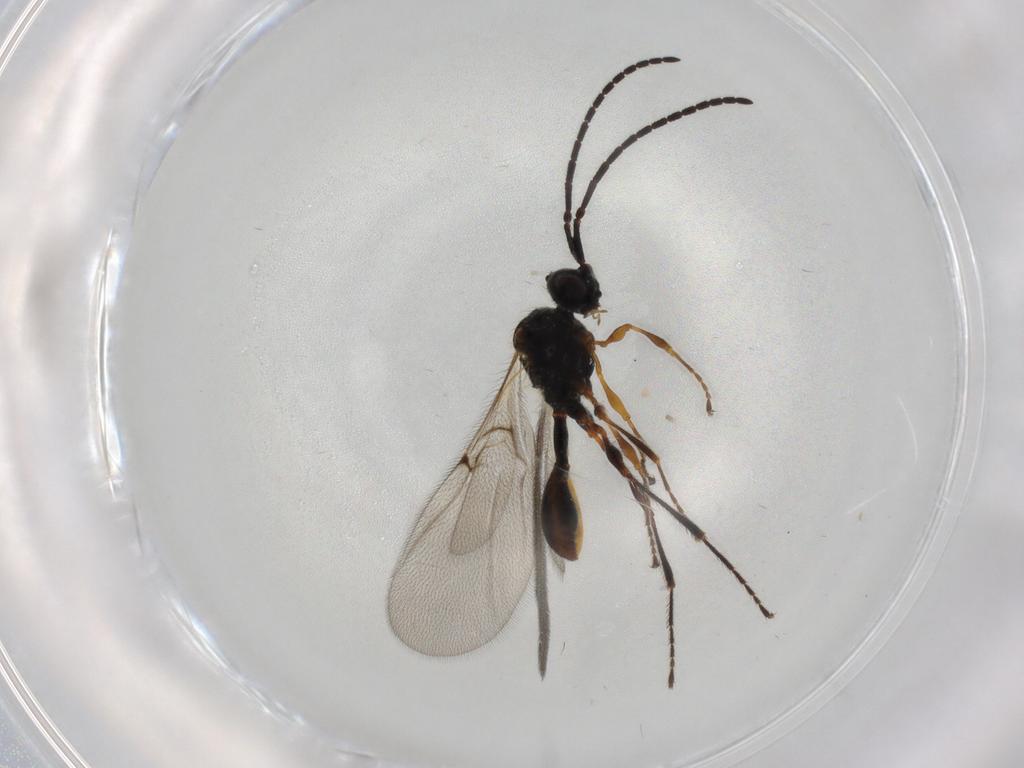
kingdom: Animalia
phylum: Arthropoda
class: Insecta
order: Hymenoptera
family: Diapriidae
